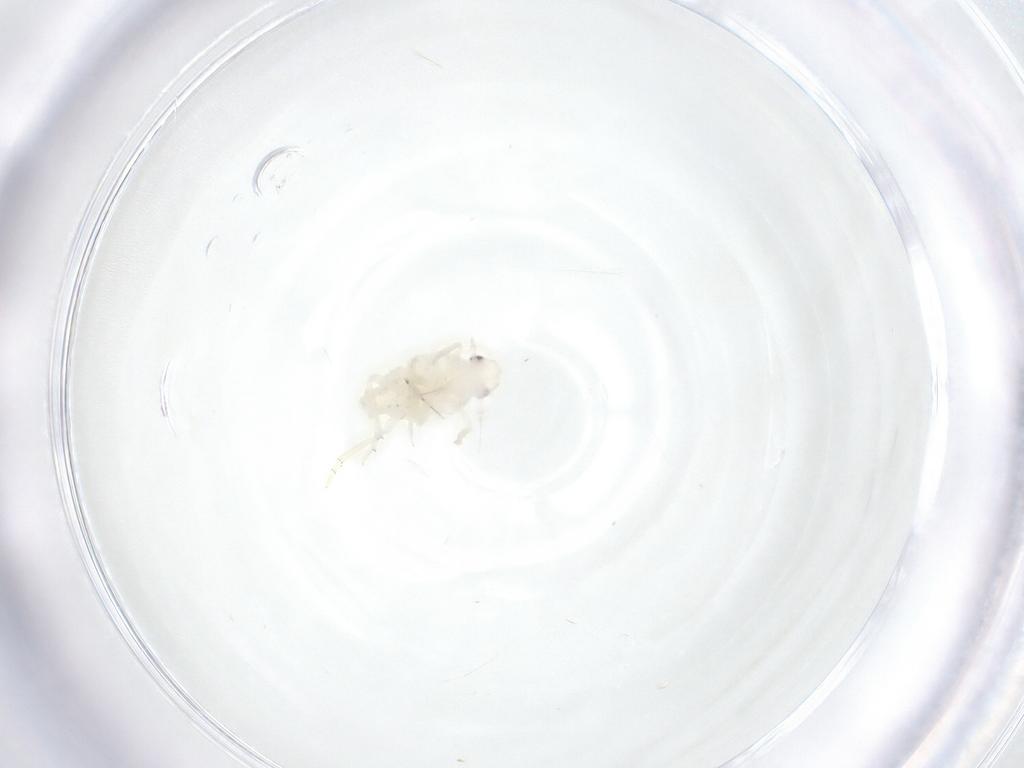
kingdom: Animalia
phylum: Arthropoda
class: Insecta
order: Hemiptera
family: Flatidae
